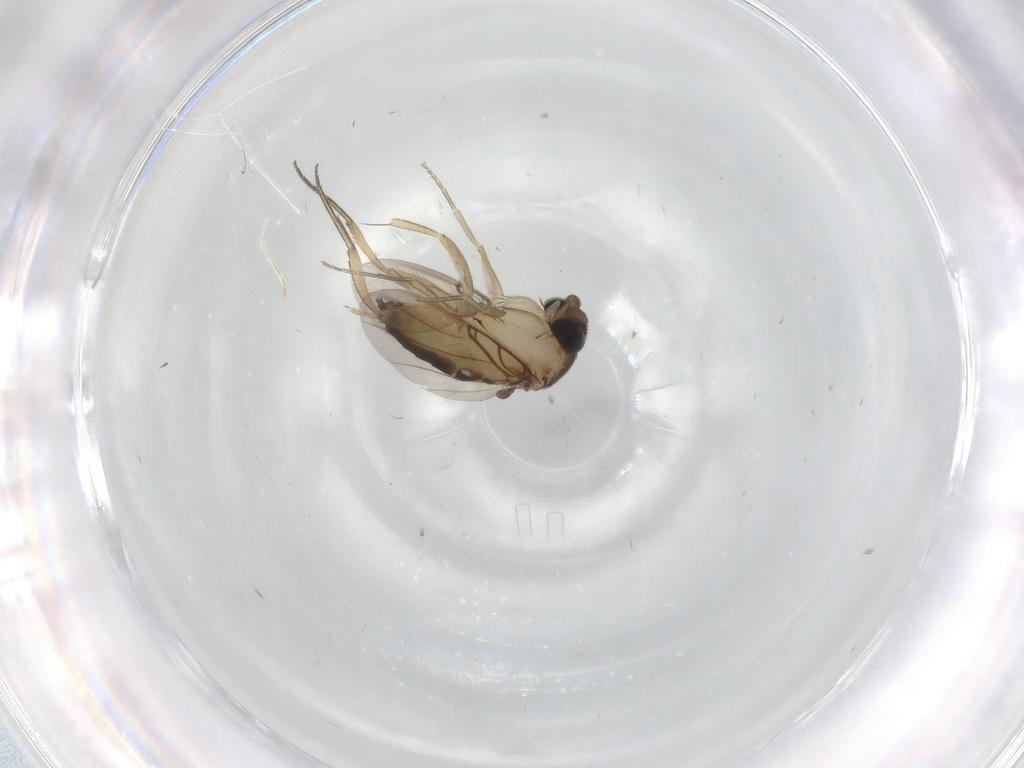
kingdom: Animalia
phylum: Arthropoda
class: Insecta
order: Diptera
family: Phoridae
